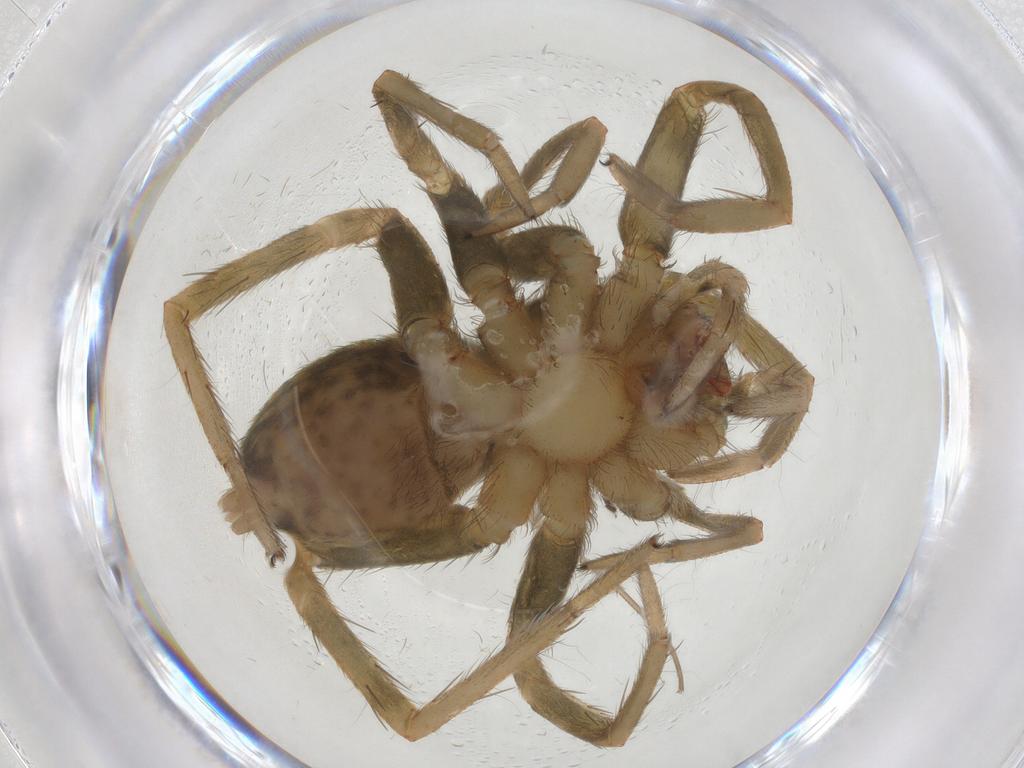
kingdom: Animalia
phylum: Arthropoda
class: Arachnida
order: Araneae
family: Agelenidae
